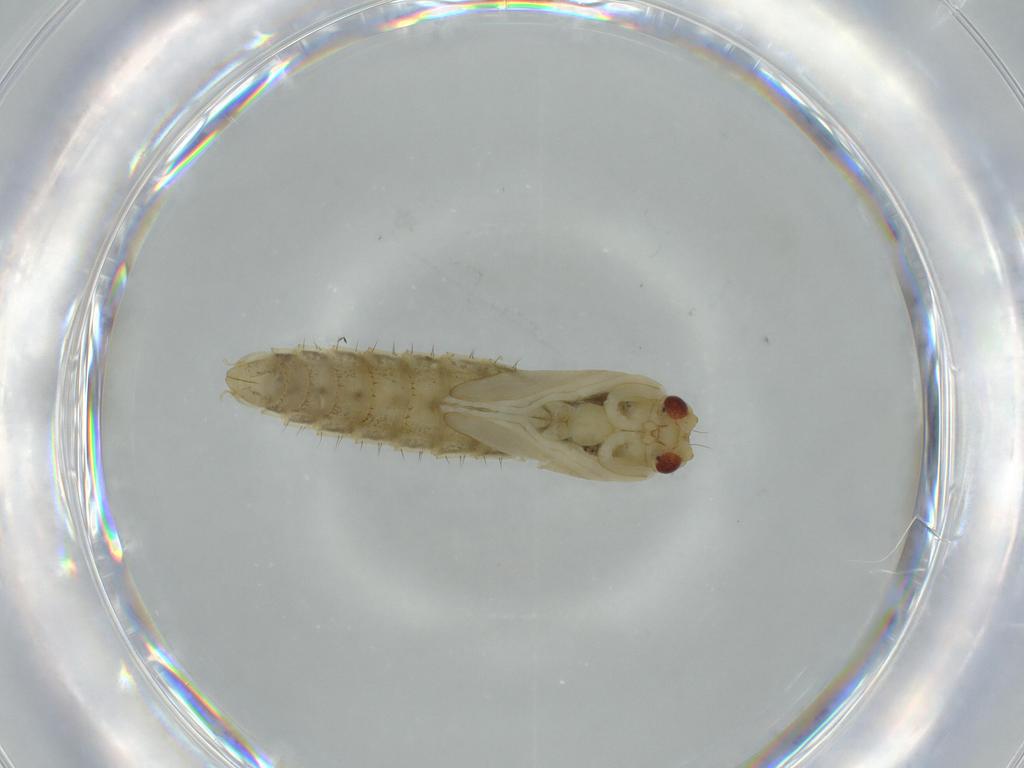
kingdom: Animalia
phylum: Arthropoda
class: Insecta
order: Diptera
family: Chironomidae
